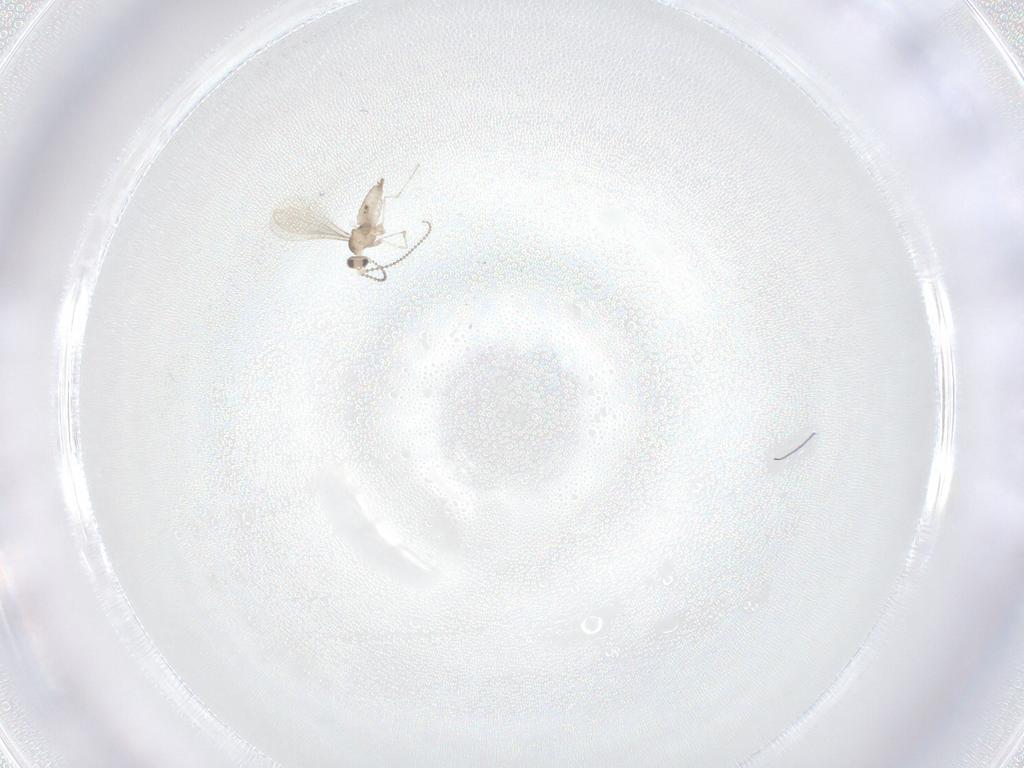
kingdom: Animalia
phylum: Arthropoda
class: Insecta
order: Diptera
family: Cecidomyiidae
